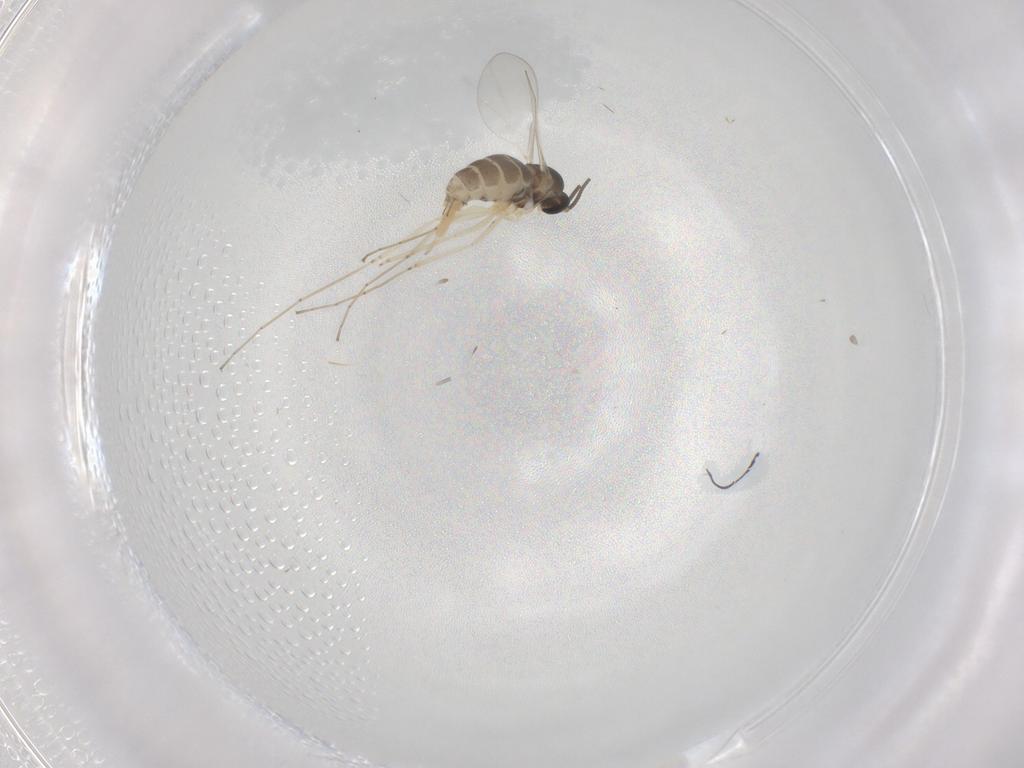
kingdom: Animalia
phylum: Arthropoda
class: Insecta
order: Diptera
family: Cecidomyiidae
